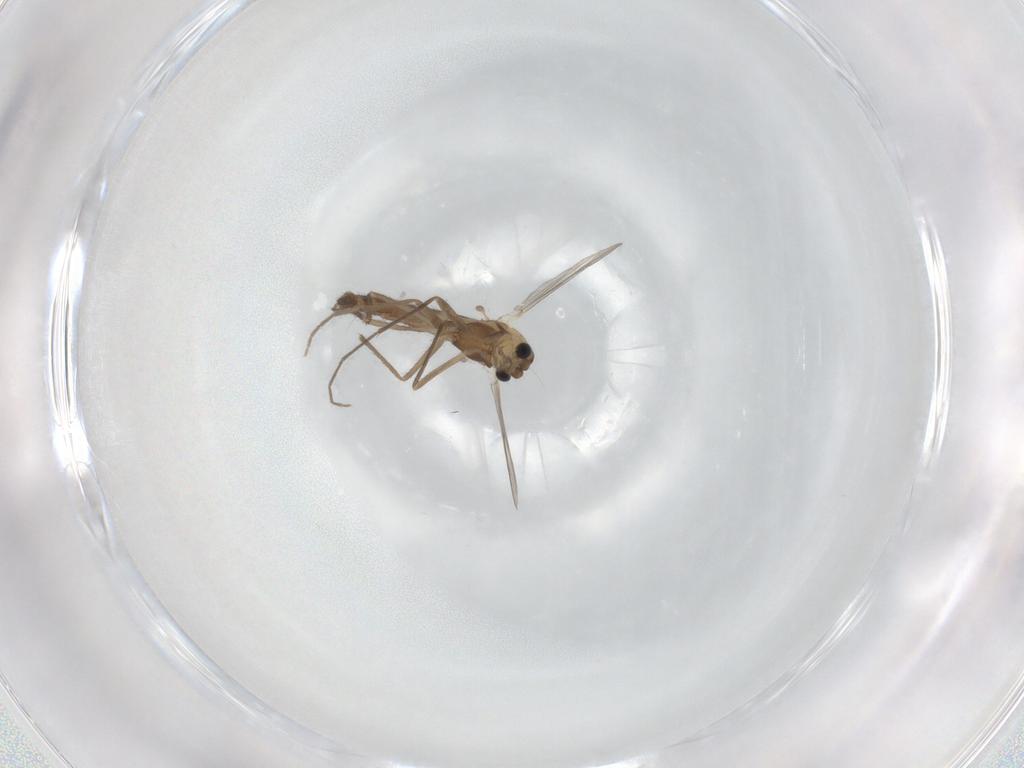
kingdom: Animalia
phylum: Arthropoda
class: Insecta
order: Diptera
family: Chironomidae
